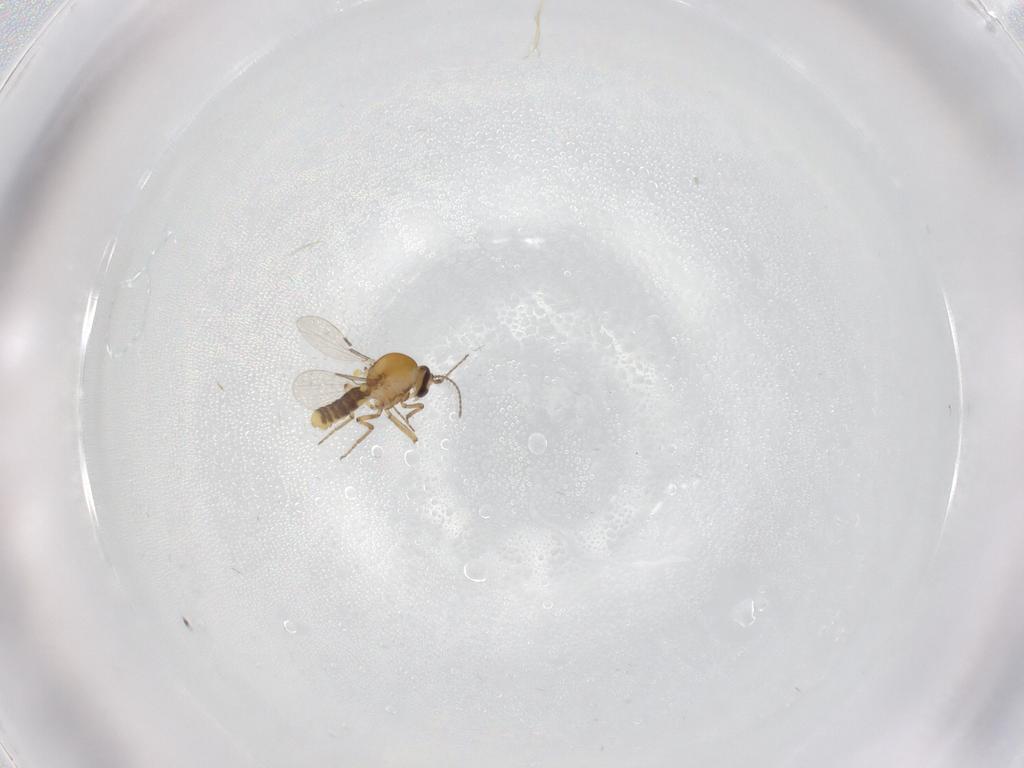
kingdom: Animalia
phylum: Arthropoda
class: Insecta
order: Diptera
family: Ceratopogonidae
